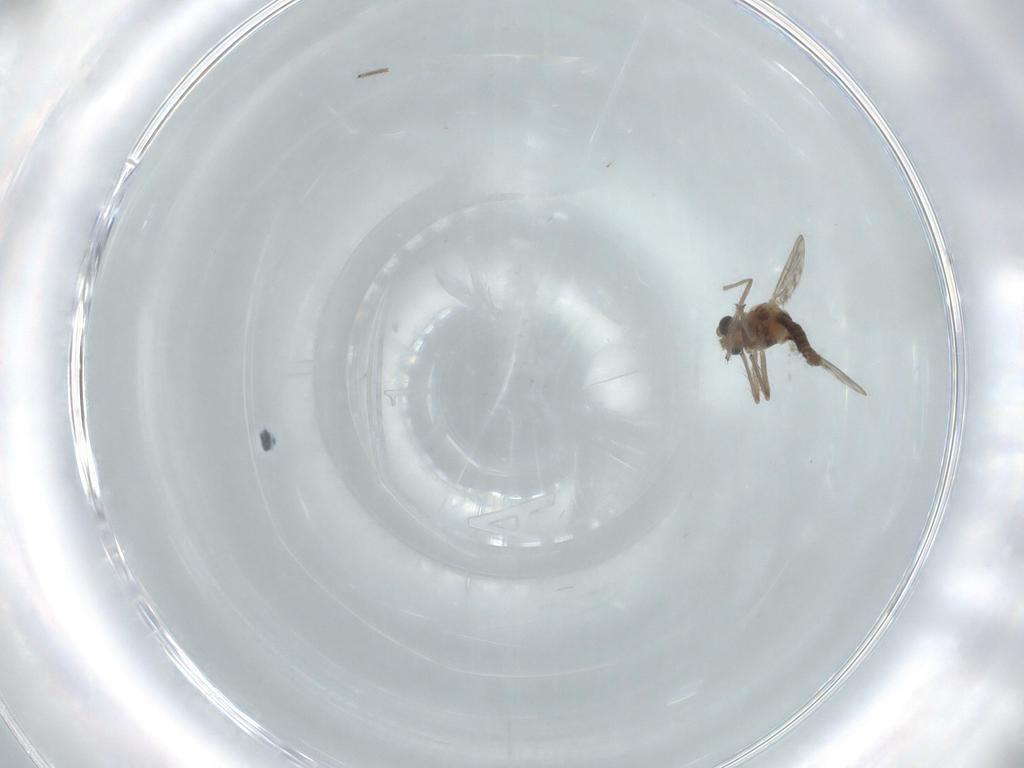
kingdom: Animalia
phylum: Arthropoda
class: Insecta
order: Diptera
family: Chironomidae
